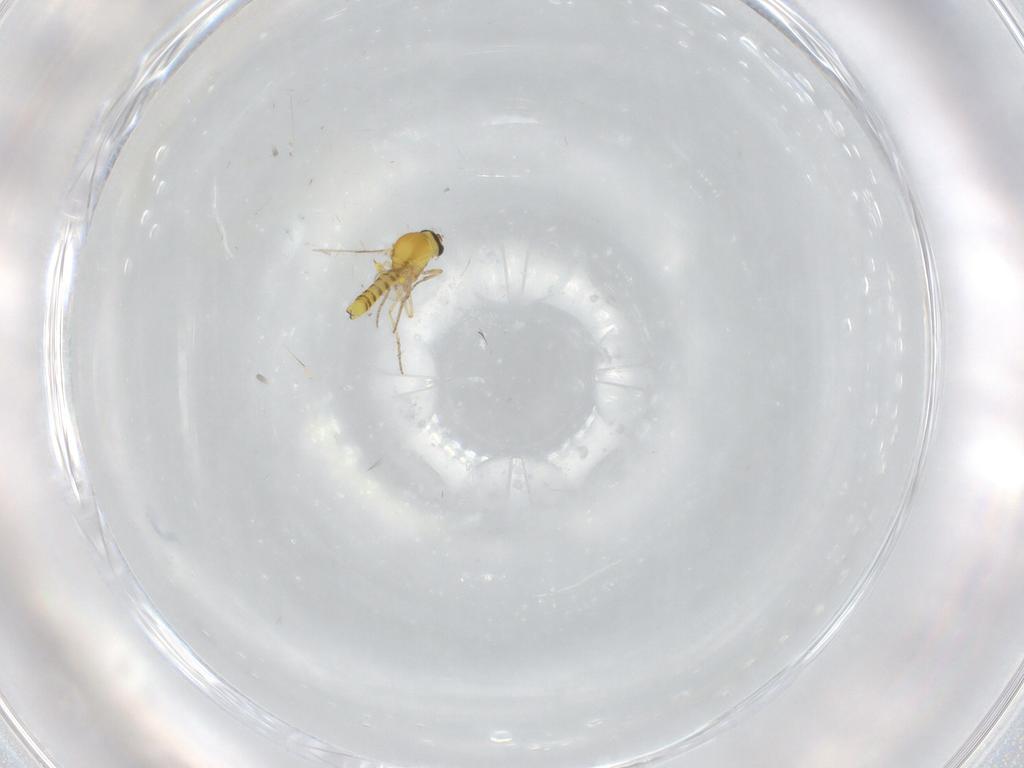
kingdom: Animalia
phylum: Arthropoda
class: Insecta
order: Diptera
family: Ceratopogonidae
